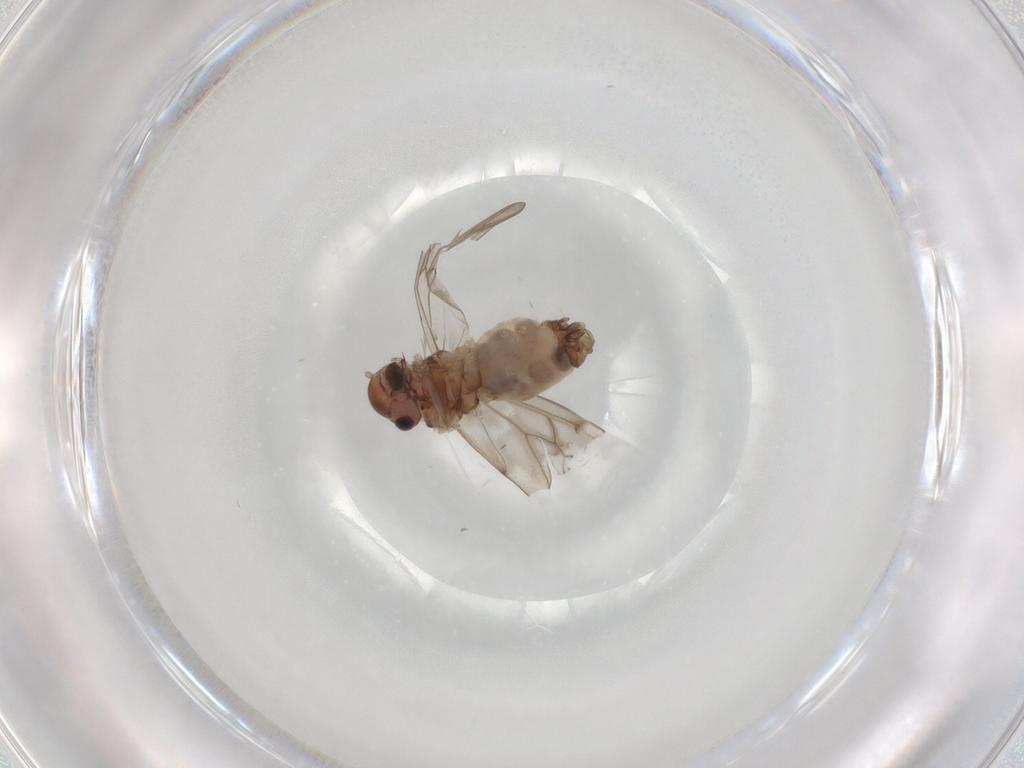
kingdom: Animalia
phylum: Arthropoda
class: Insecta
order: Psocodea
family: Peripsocidae
